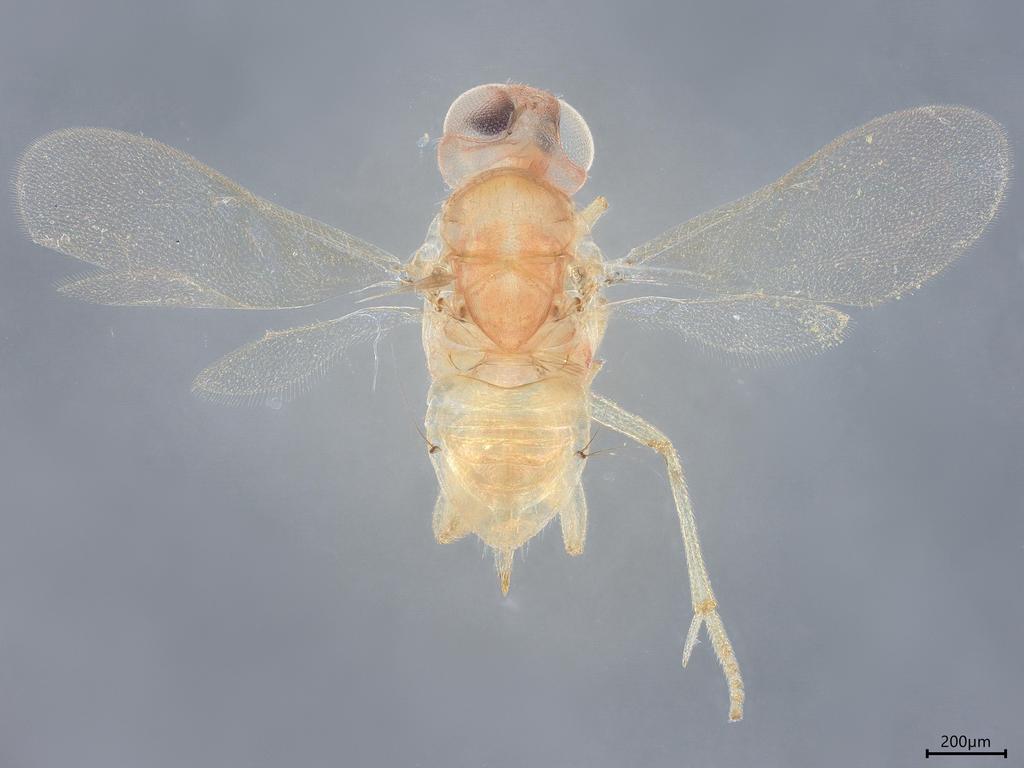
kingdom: Animalia
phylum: Arthropoda
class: Insecta
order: Hymenoptera
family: Encyrtidae
